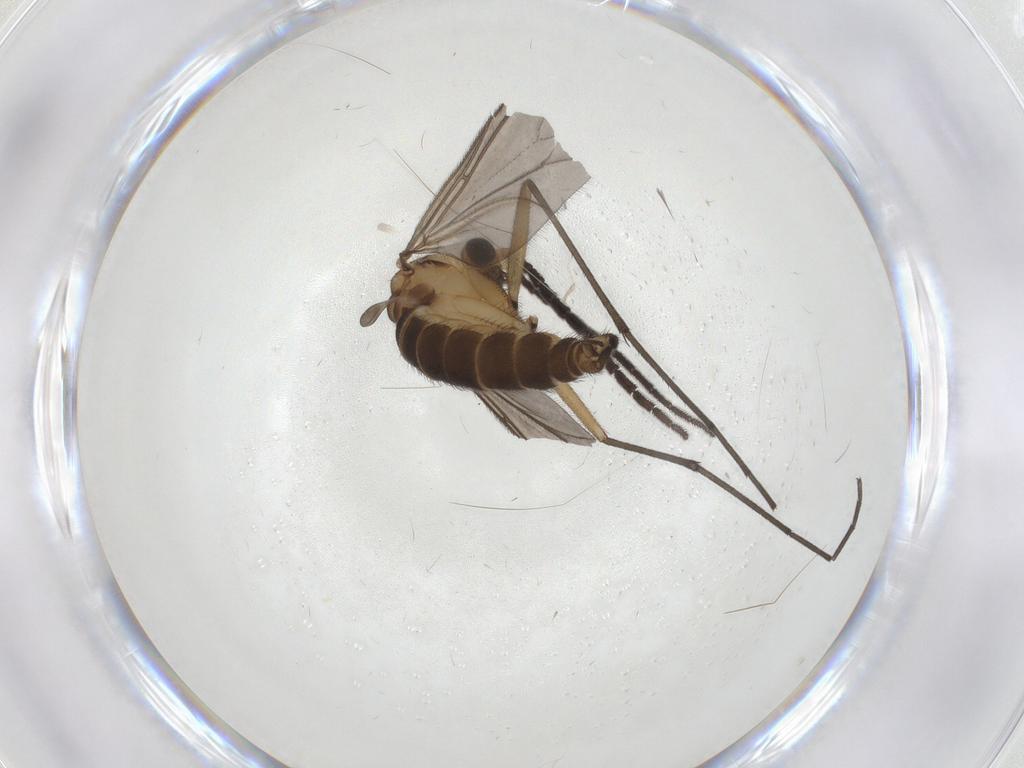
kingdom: Animalia
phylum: Arthropoda
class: Insecta
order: Diptera
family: Sciaridae
